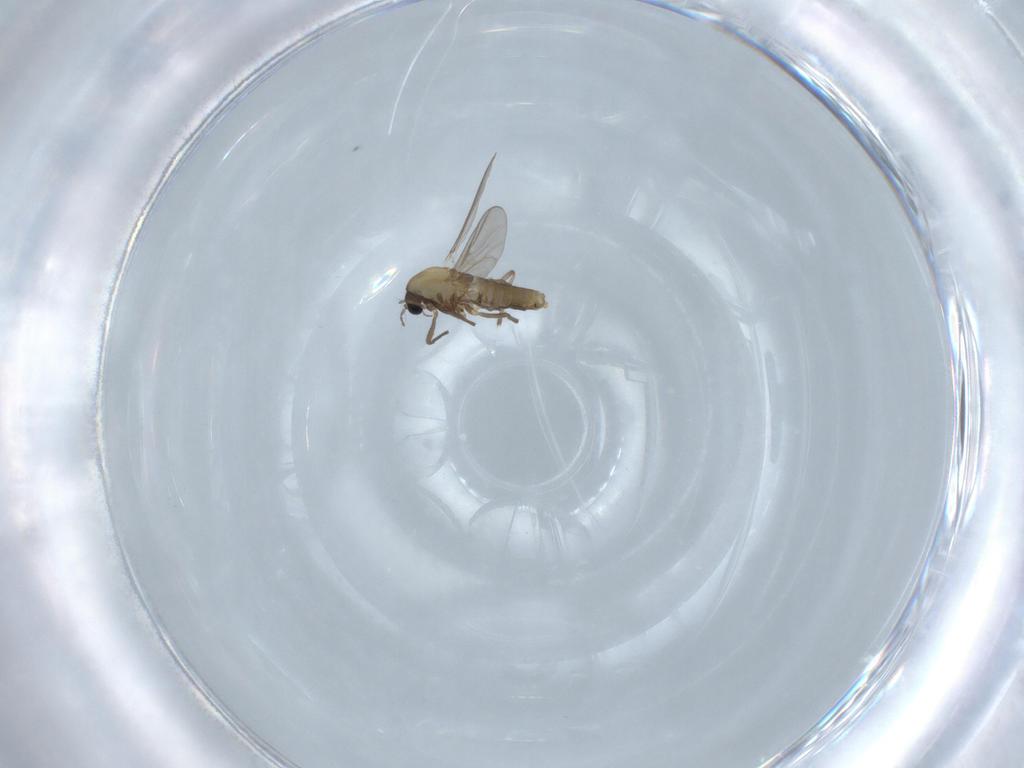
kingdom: Animalia
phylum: Arthropoda
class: Insecta
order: Diptera
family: Chironomidae
